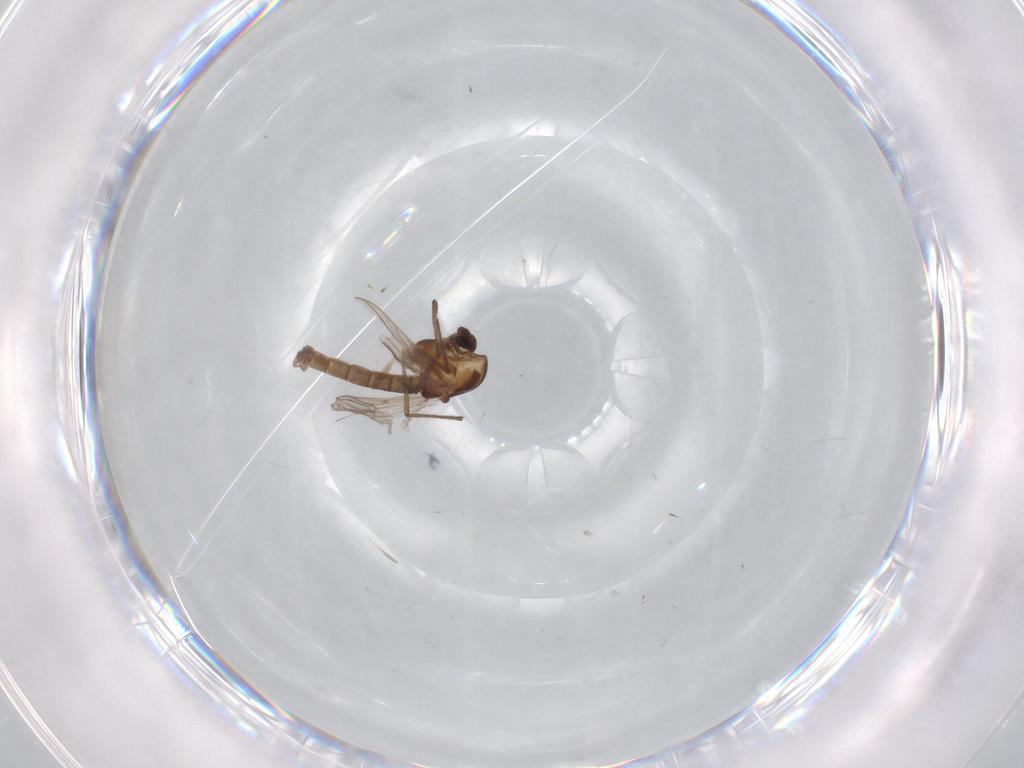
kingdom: Animalia
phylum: Arthropoda
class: Insecta
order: Diptera
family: Chironomidae
